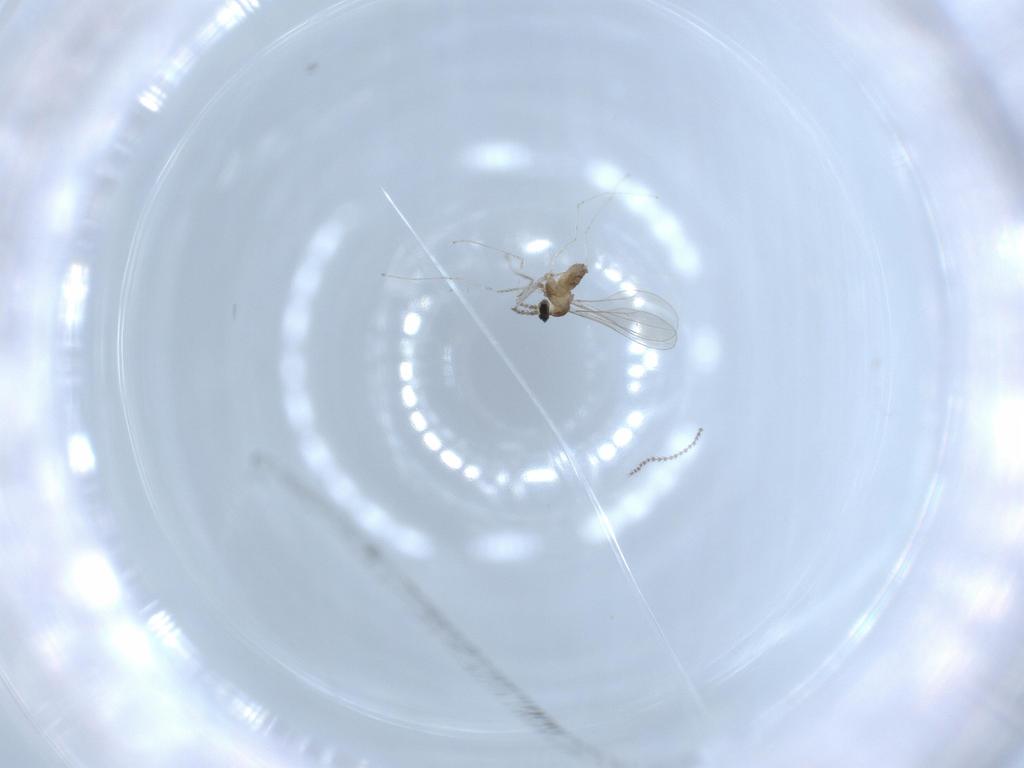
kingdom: Animalia
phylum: Arthropoda
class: Insecta
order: Diptera
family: Cecidomyiidae
